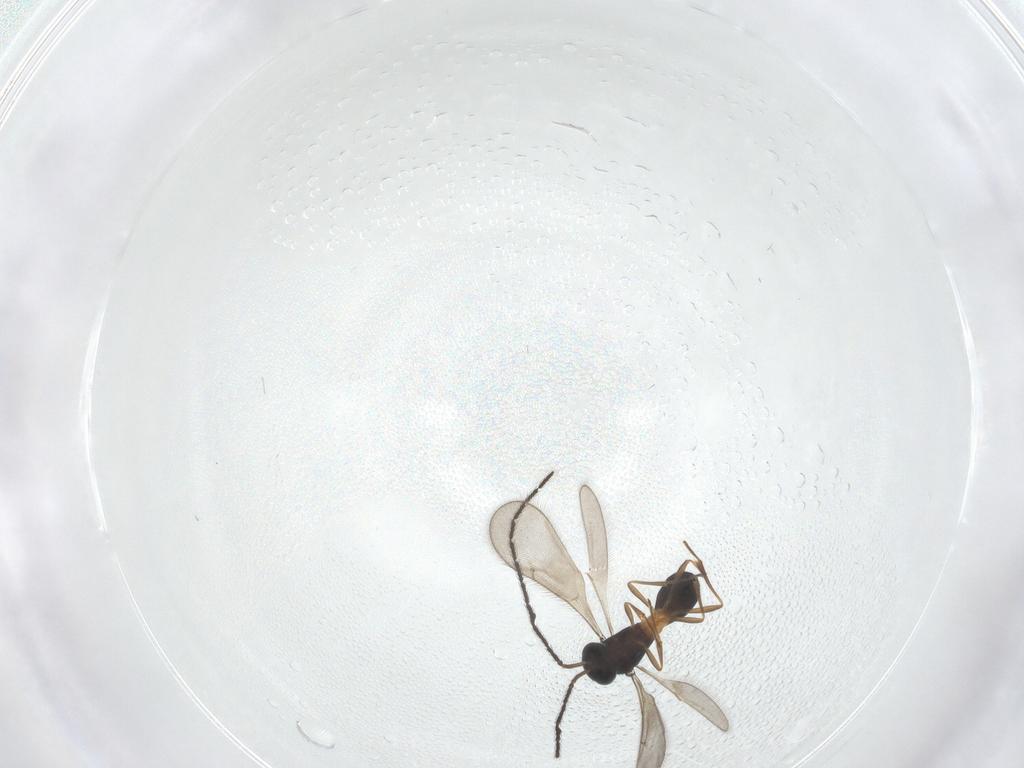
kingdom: Animalia
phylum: Arthropoda
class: Insecta
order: Hymenoptera
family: Scelionidae
